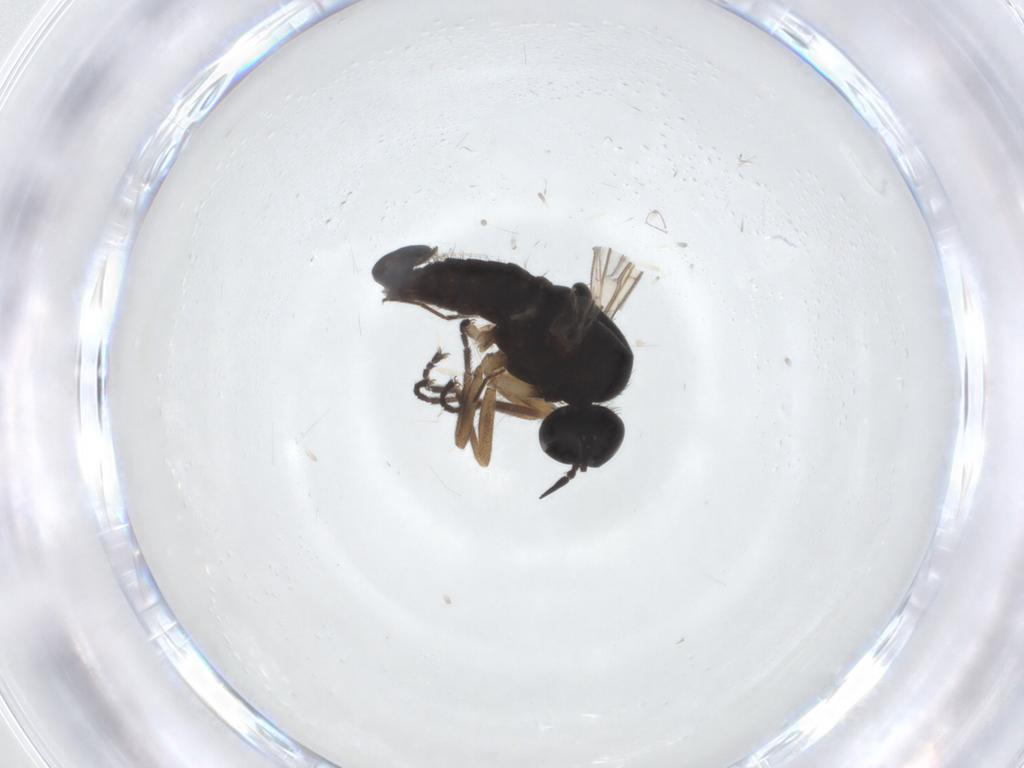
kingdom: Animalia
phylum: Arthropoda
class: Insecta
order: Diptera
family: Empididae
